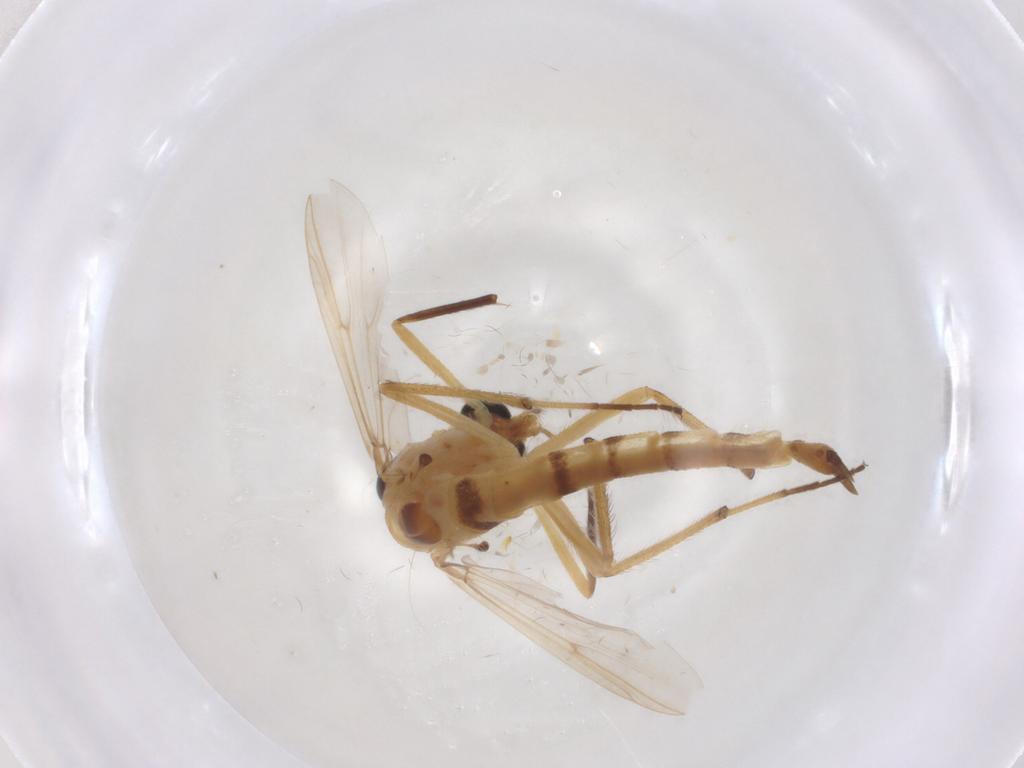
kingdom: Animalia
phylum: Arthropoda
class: Insecta
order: Diptera
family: Chironomidae
